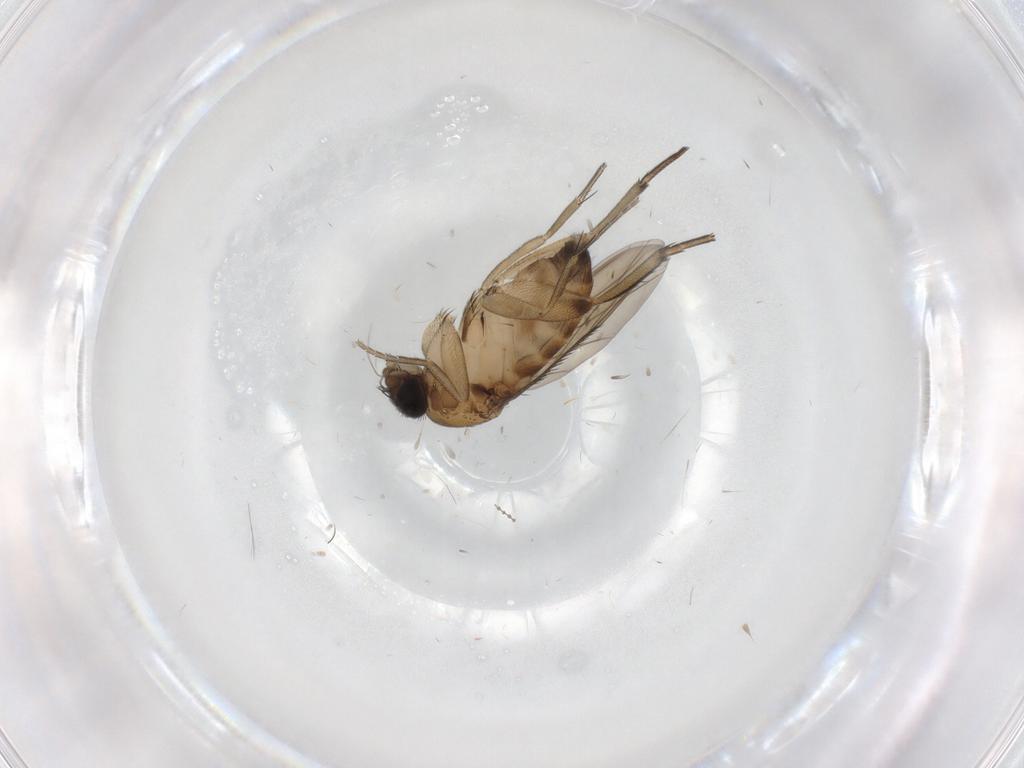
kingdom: Animalia
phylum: Arthropoda
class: Insecta
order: Diptera
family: Phoridae
